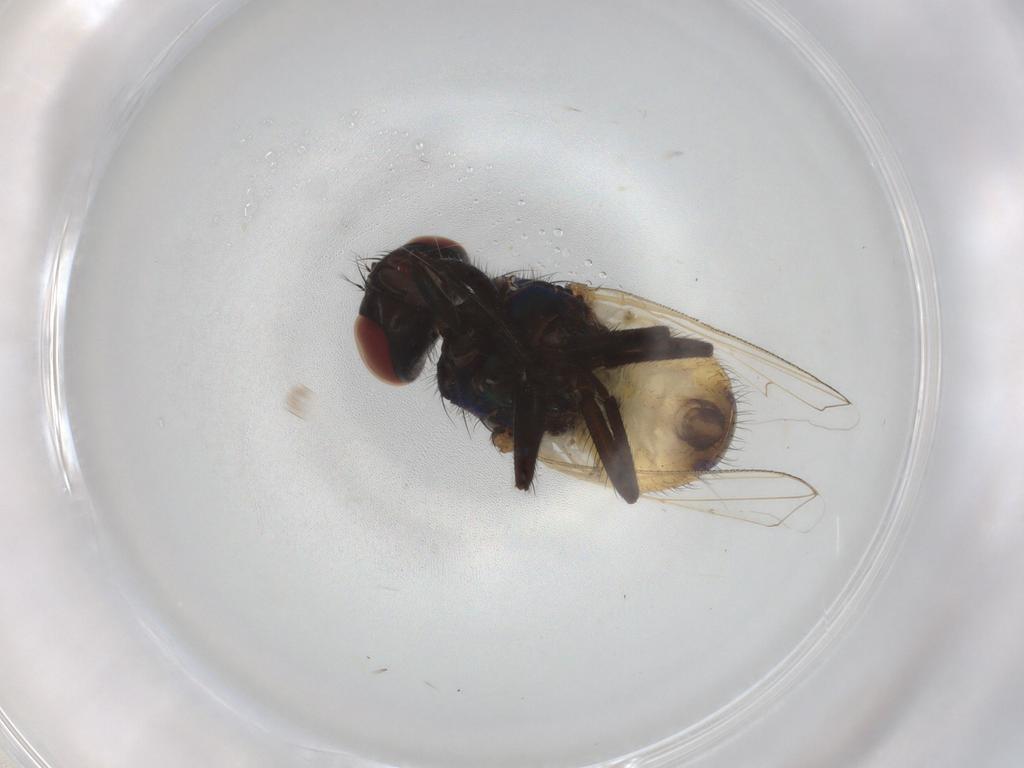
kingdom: Animalia
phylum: Arthropoda
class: Insecta
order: Diptera
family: Muscidae
